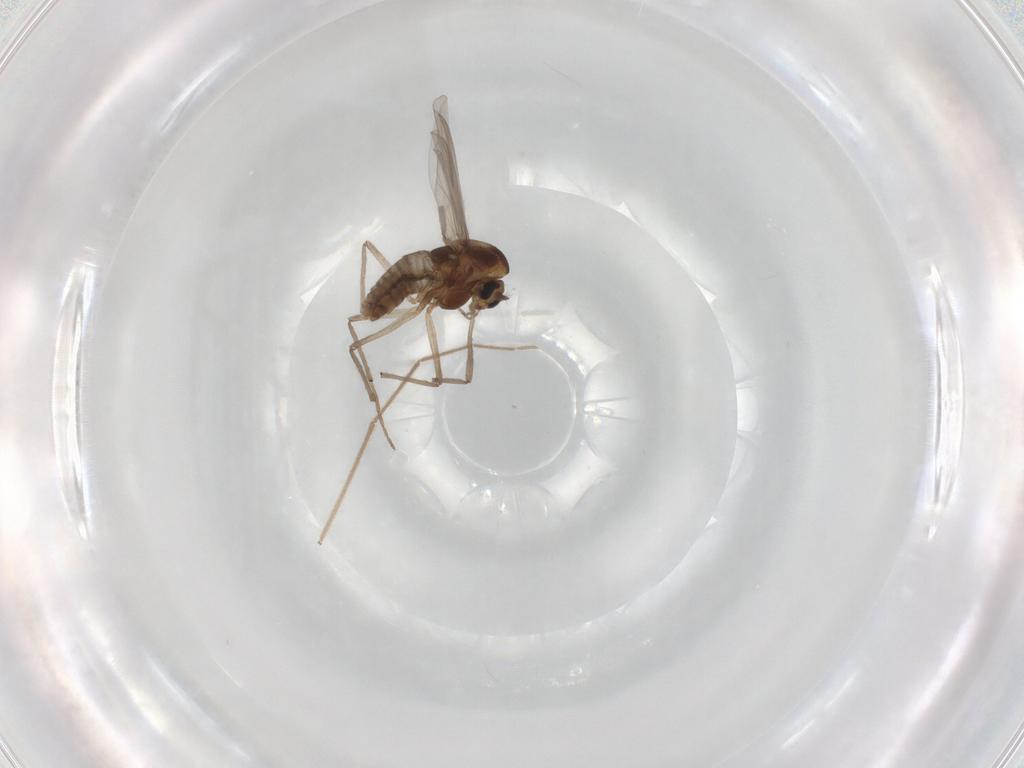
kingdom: Animalia
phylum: Arthropoda
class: Insecta
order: Diptera
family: Chironomidae
